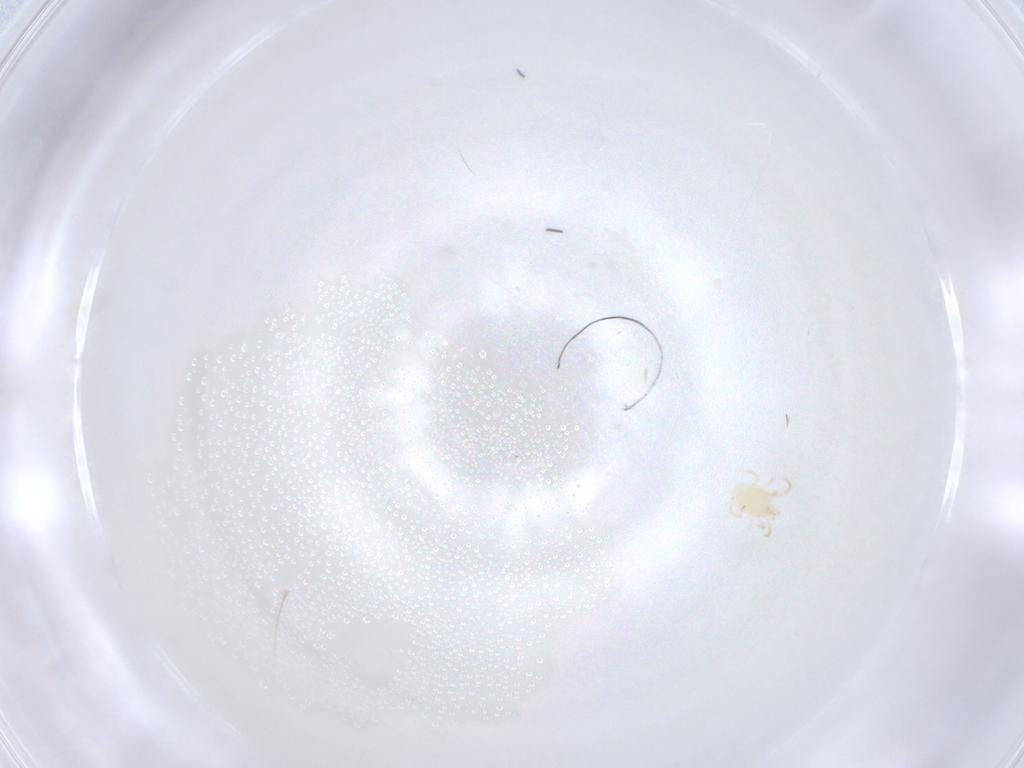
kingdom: Animalia
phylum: Arthropoda
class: Arachnida
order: Mesostigmata
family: Phytoseiidae
